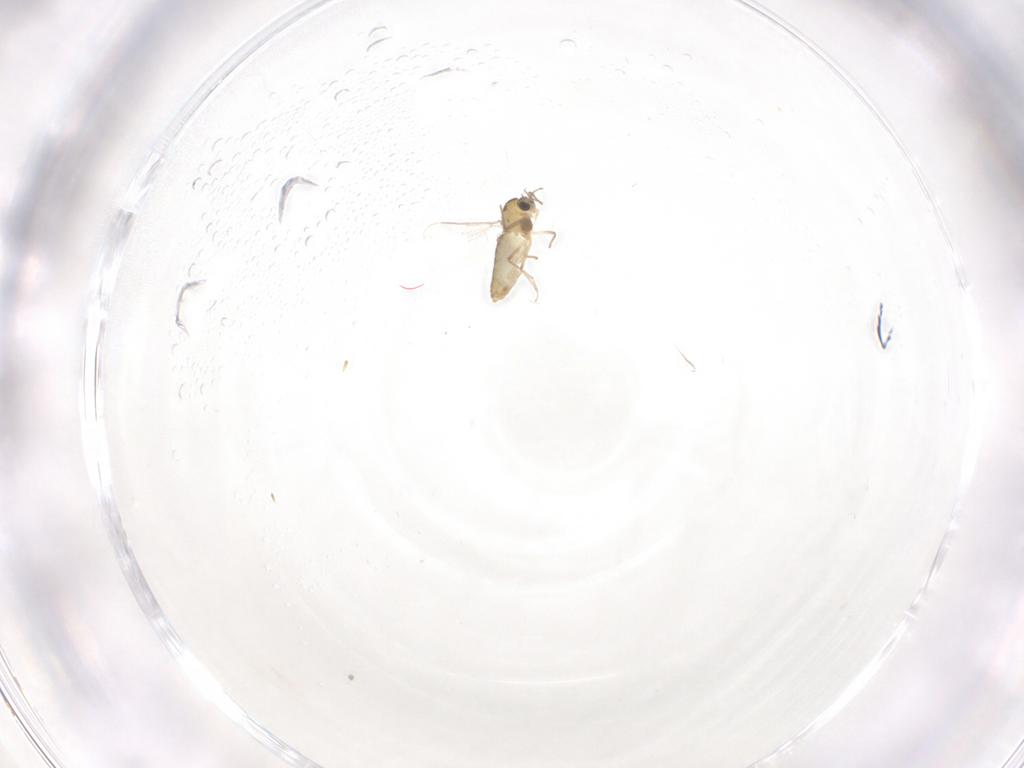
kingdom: Animalia
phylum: Arthropoda
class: Insecta
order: Diptera
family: Chironomidae
